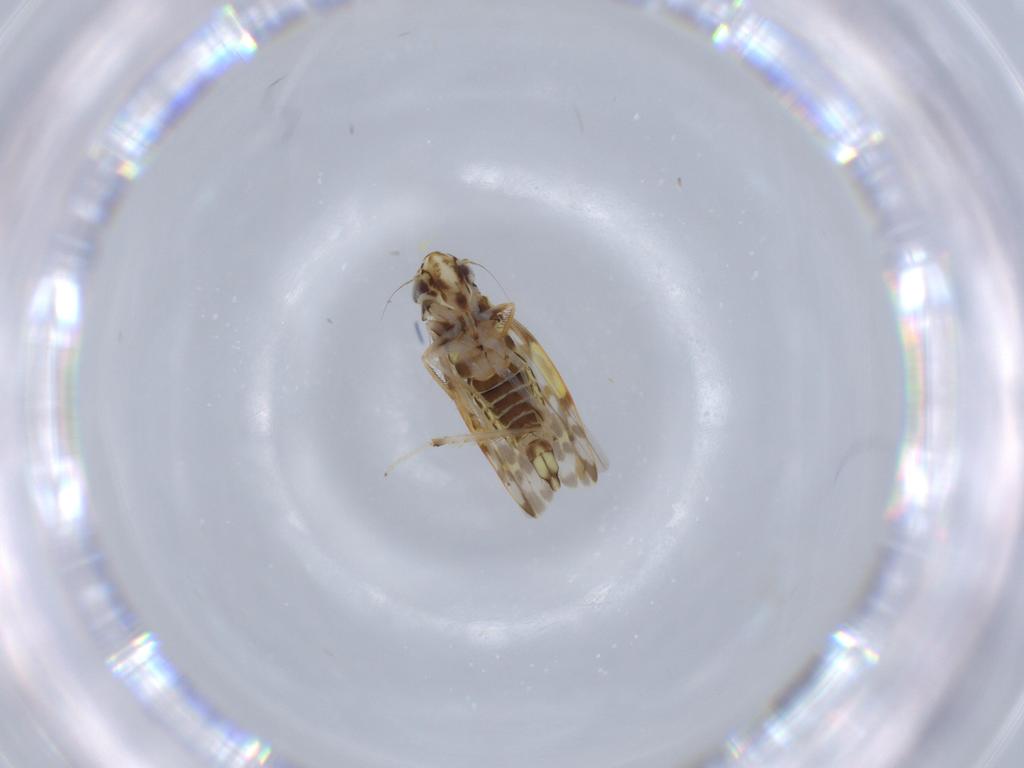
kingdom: Animalia
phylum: Arthropoda
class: Insecta
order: Hemiptera
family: Cicadellidae
